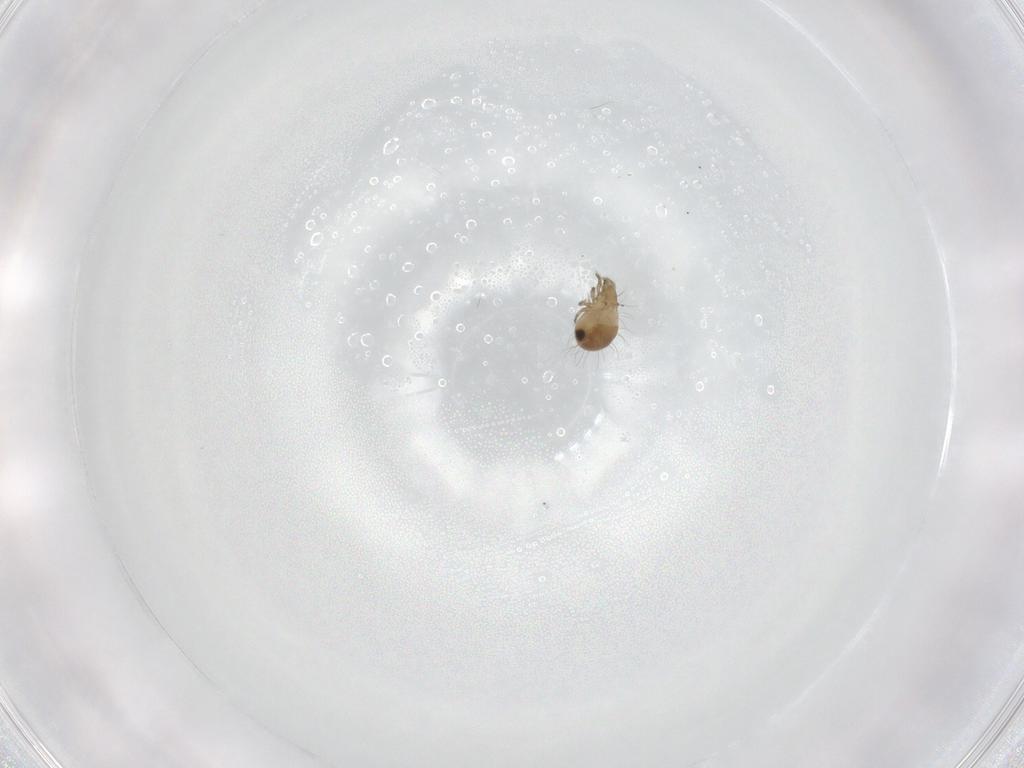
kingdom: Animalia
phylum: Arthropoda
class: Arachnida
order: Sarcoptiformes
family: Ceratozetidae
